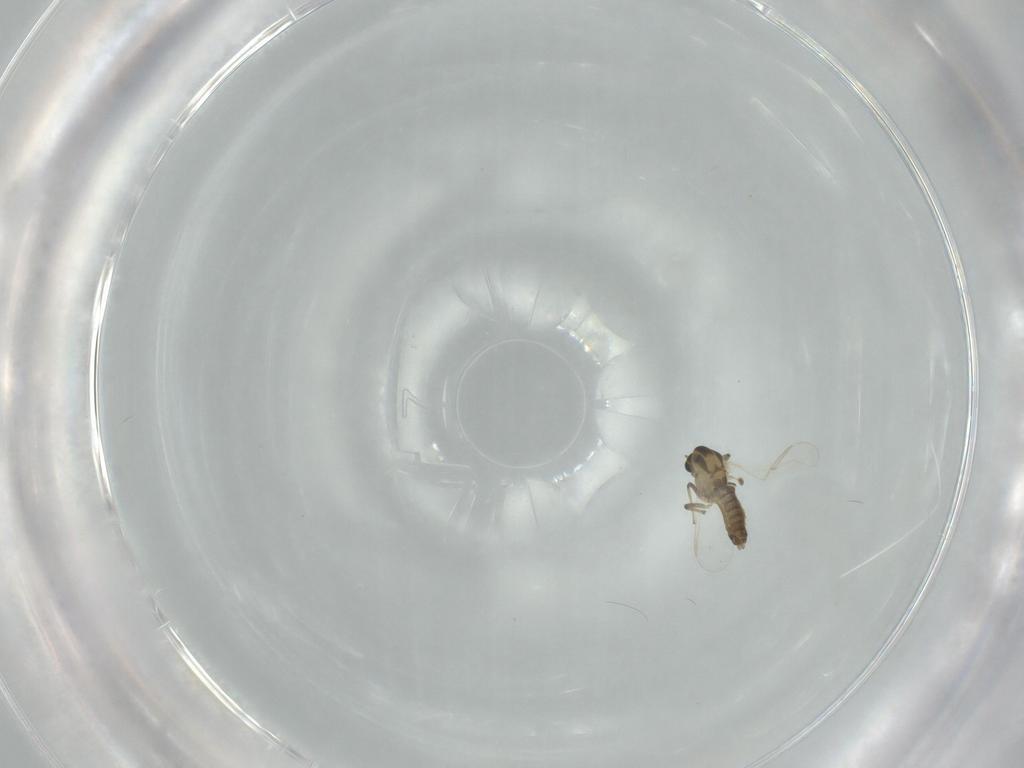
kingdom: Animalia
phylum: Arthropoda
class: Insecta
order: Diptera
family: Chironomidae
